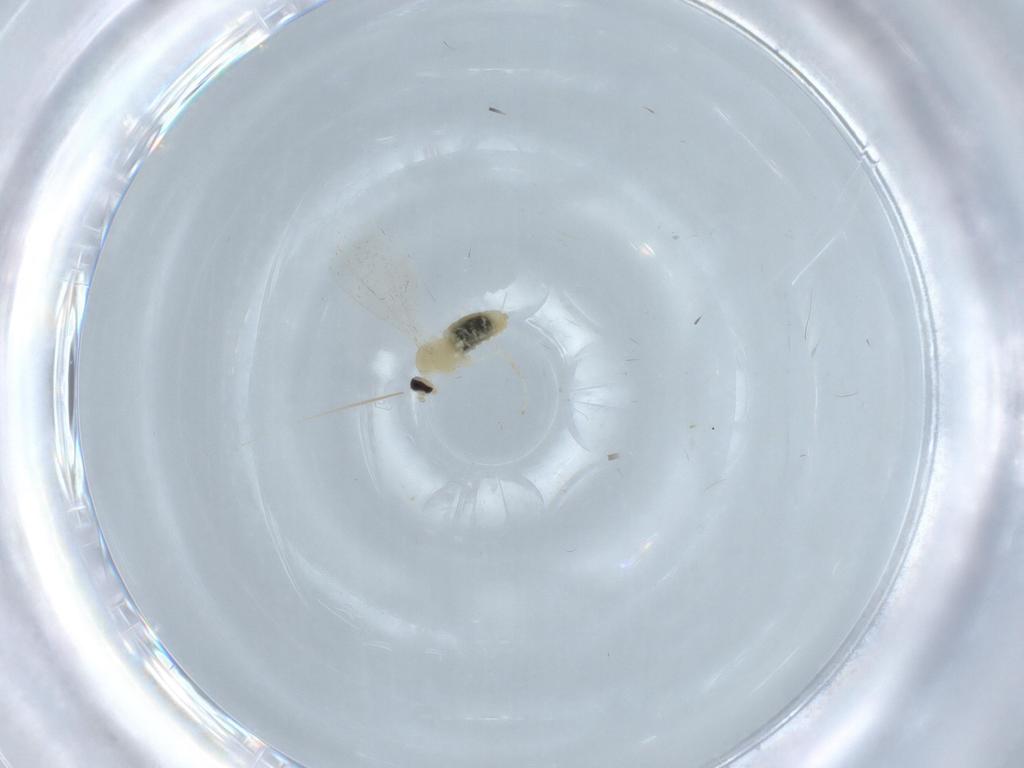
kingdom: Animalia
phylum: Arthropoda
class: Insecta
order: Diptera
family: Cecidomyiidae
